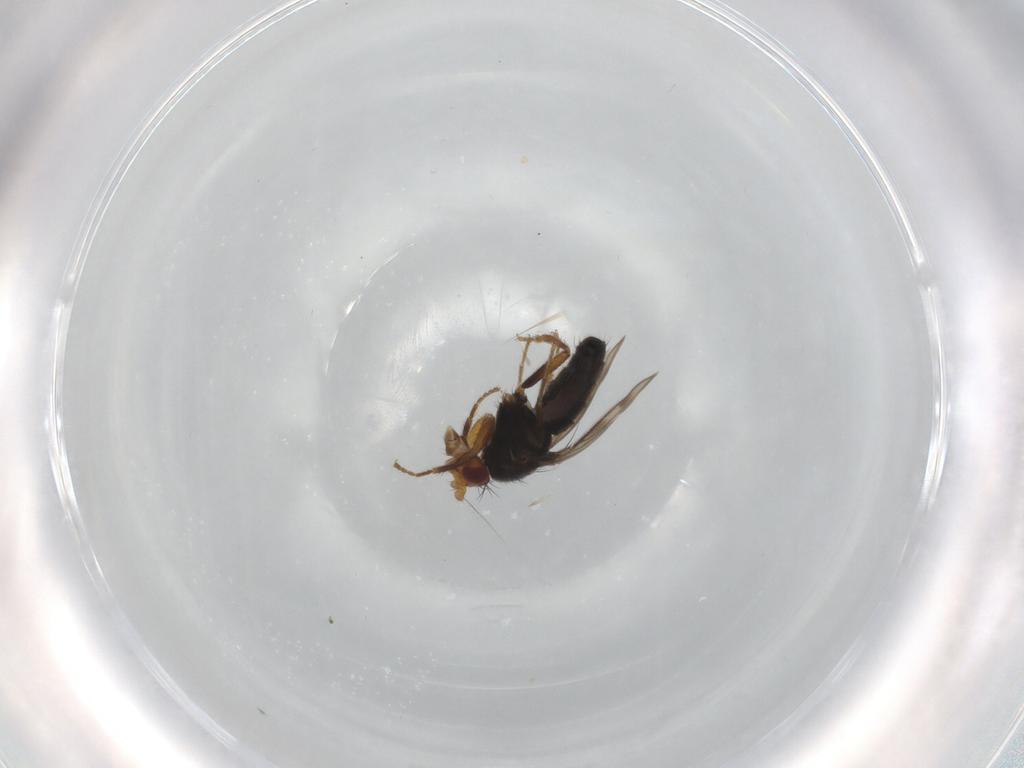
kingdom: Animalia
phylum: Arthropoda
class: Insecta
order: Diptera
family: Sphaeroceridae
